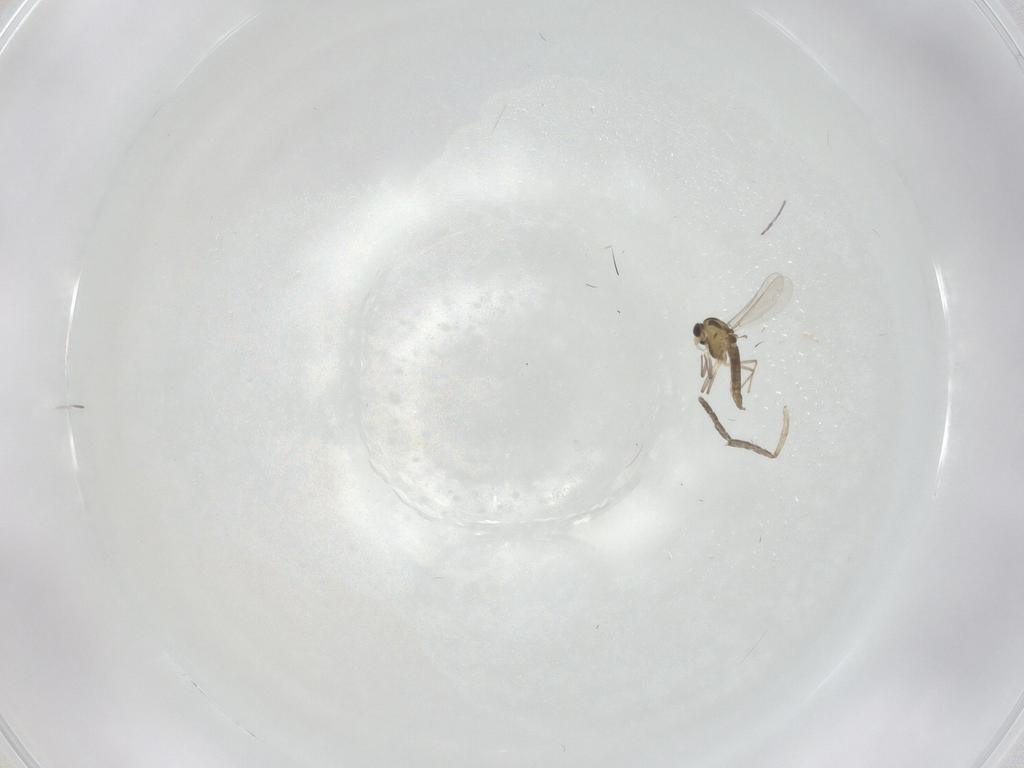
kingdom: Animalia
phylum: Arthropoda
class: Insecta
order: Diptera
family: Psychodidae
